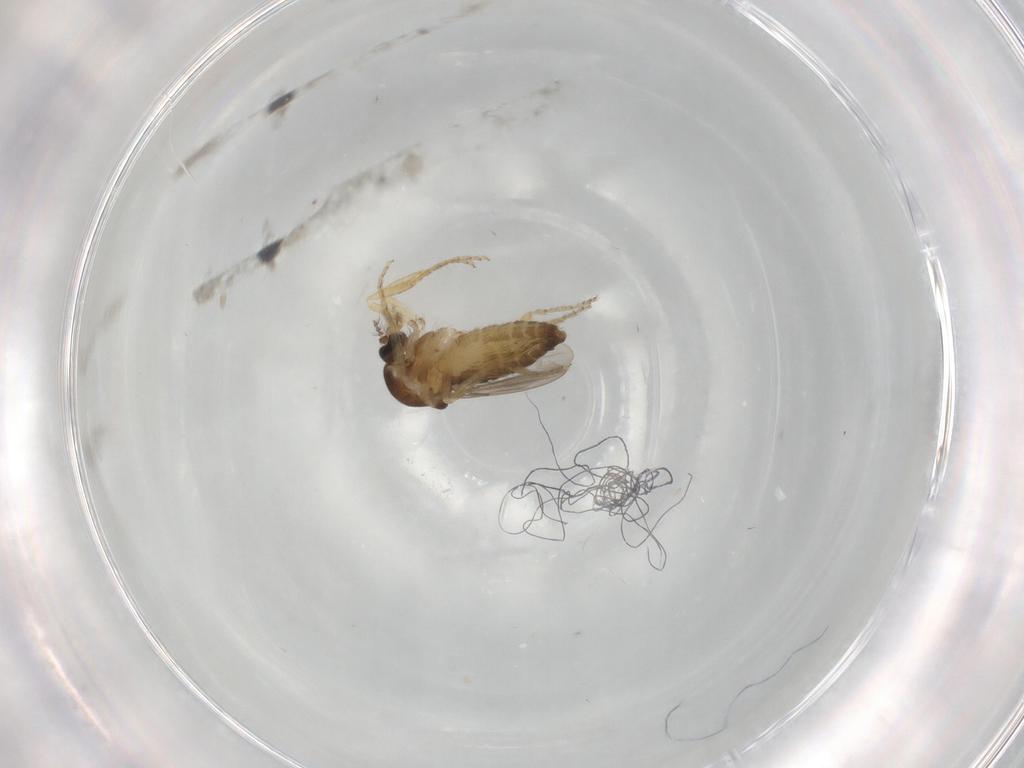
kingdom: Animalia
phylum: Arthropoda
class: Insecta
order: Diptera
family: Ceratopogonidae
